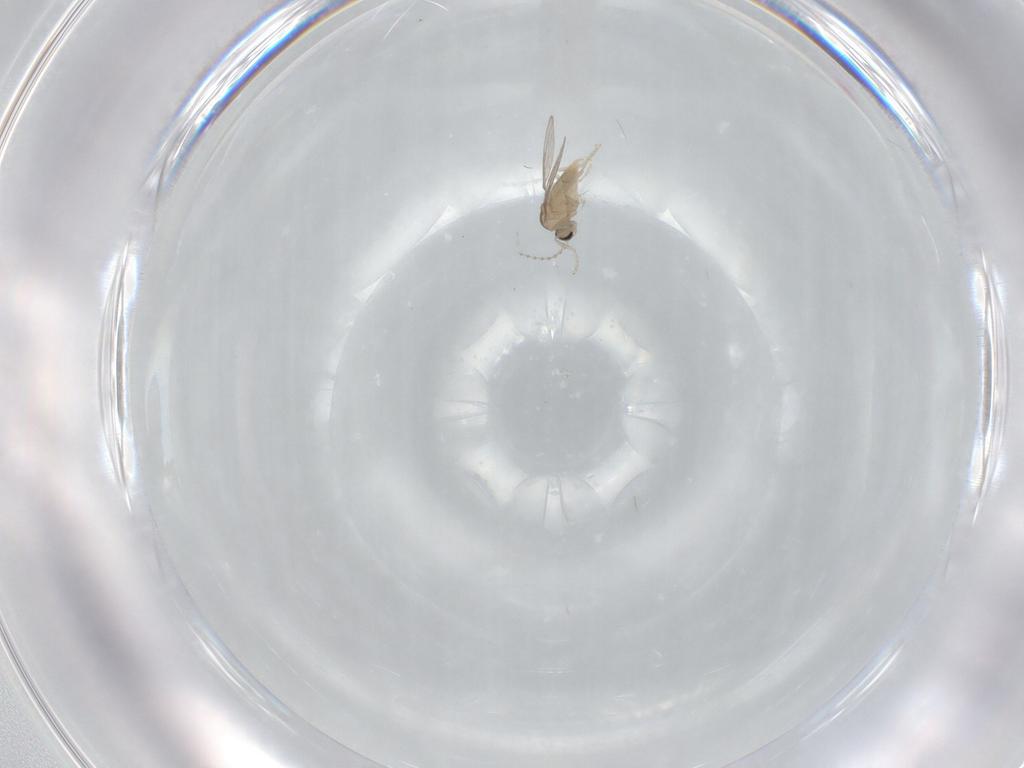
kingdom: Animalia
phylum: Arthropoda
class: Insecta
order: Diptera
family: Cecidomyiidae
